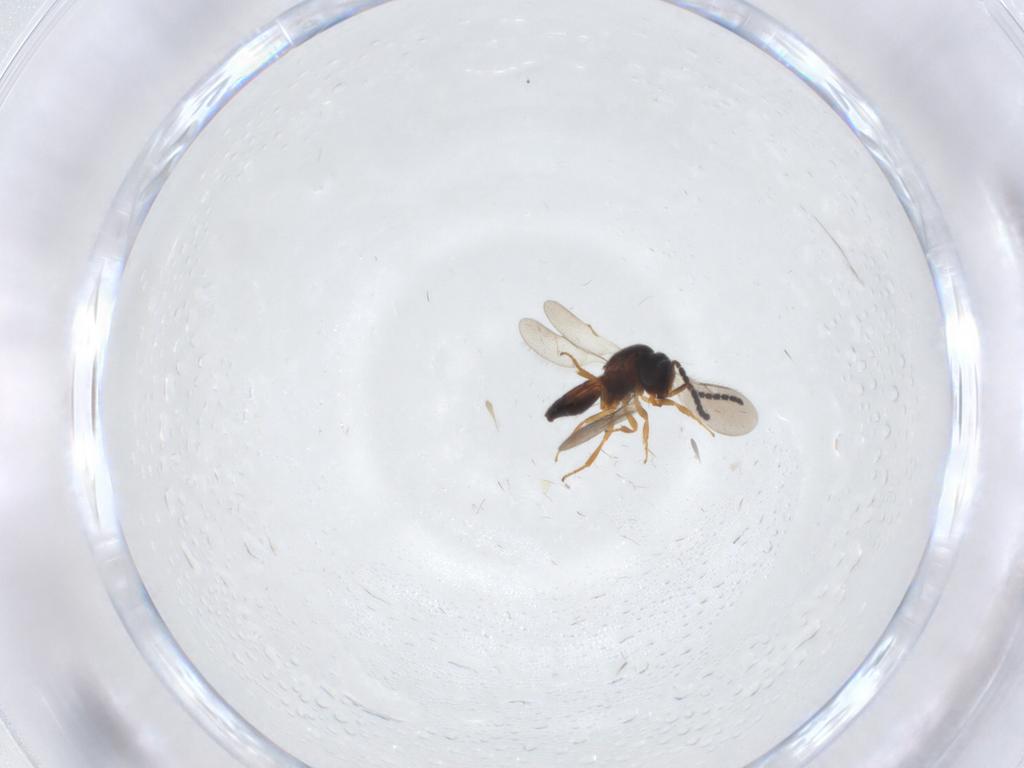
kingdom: Animalia
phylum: Arthropoda
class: Insecta
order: Hymenoptera
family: Scelionidae
